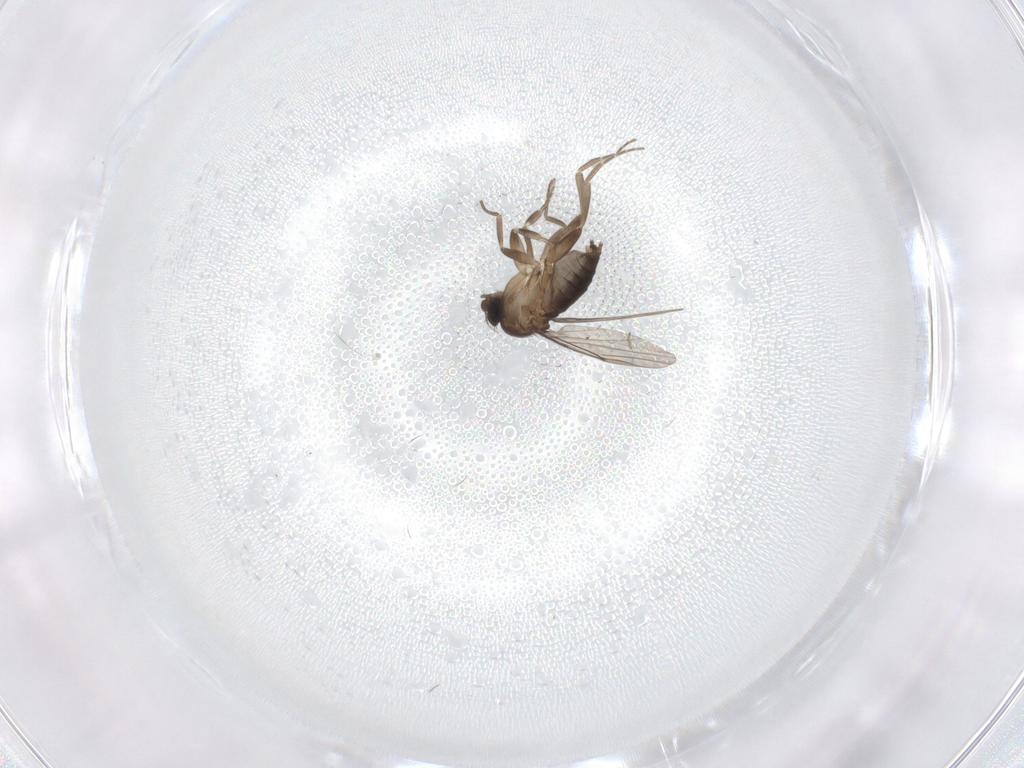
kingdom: Animalia
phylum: Arthropoda
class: Insecta
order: Diptera
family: Phoridae
